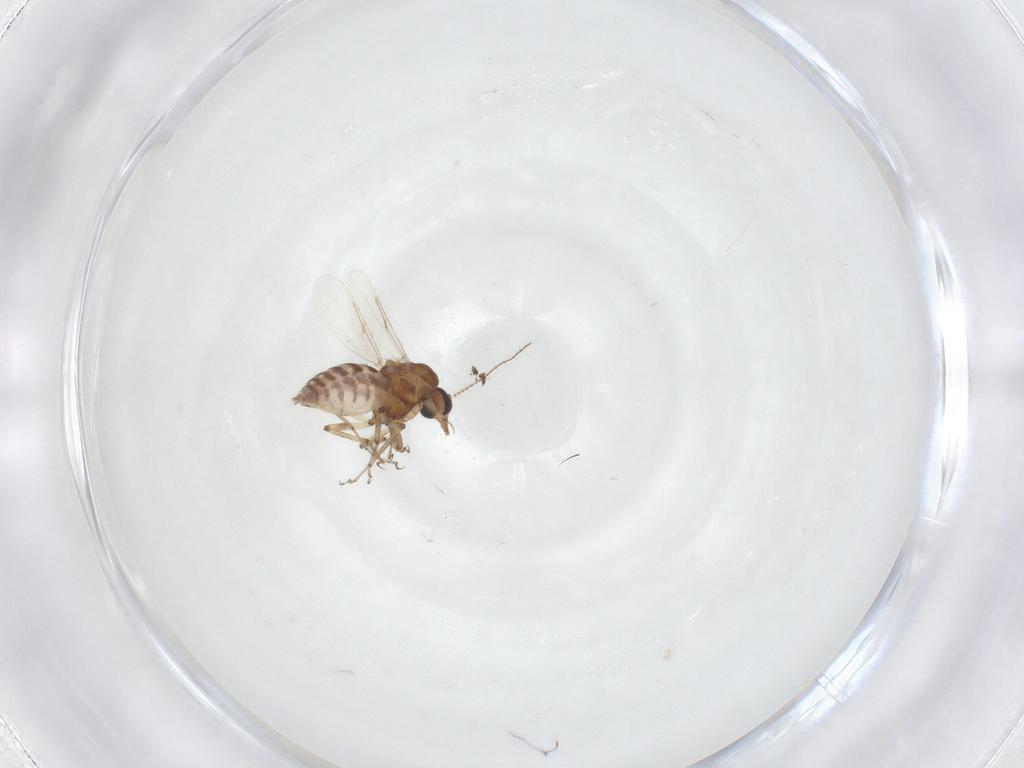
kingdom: Animalia
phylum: Arthropoda
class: Insecta
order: Diptera
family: Ceratopogonidae
